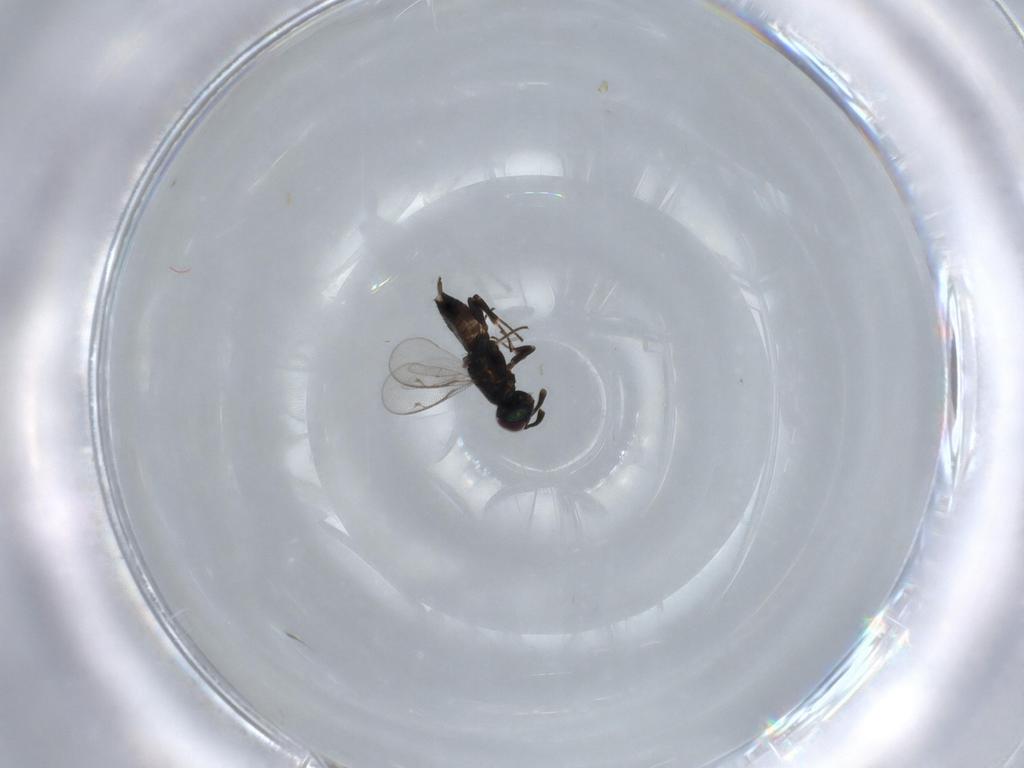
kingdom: Animalia
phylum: Arthropoda
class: Insecta
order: Hymenoptera
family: Eupelmidae
